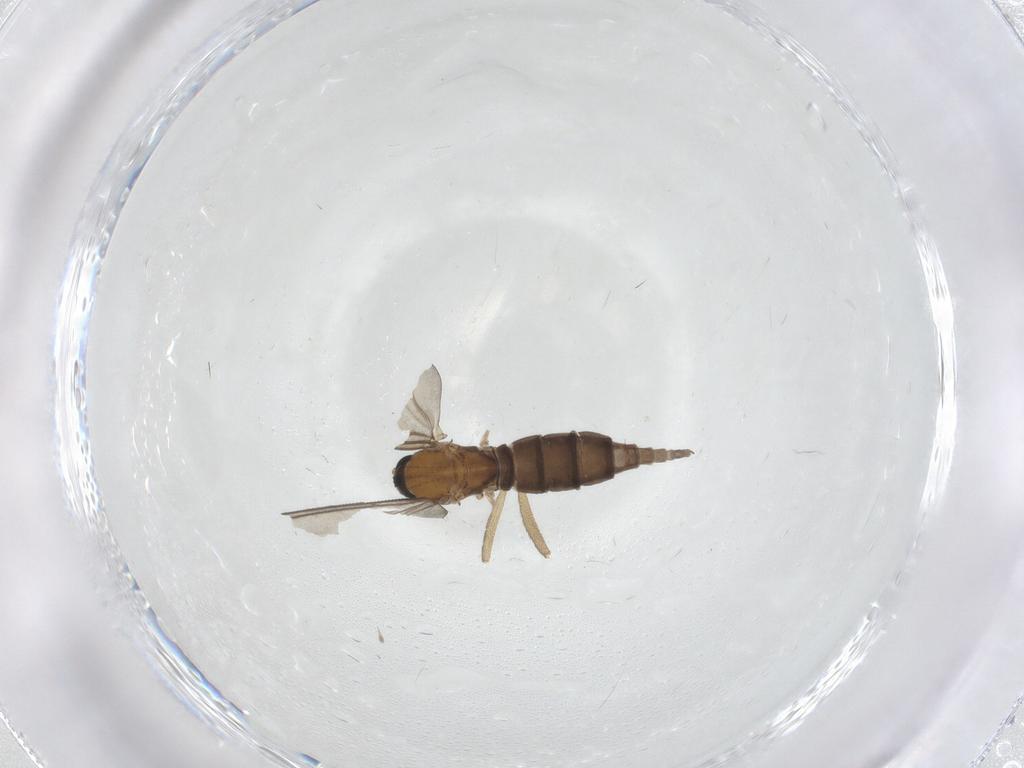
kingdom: Animalia
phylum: Arthropoda
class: Insecta
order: Diptera
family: Sciaridae
